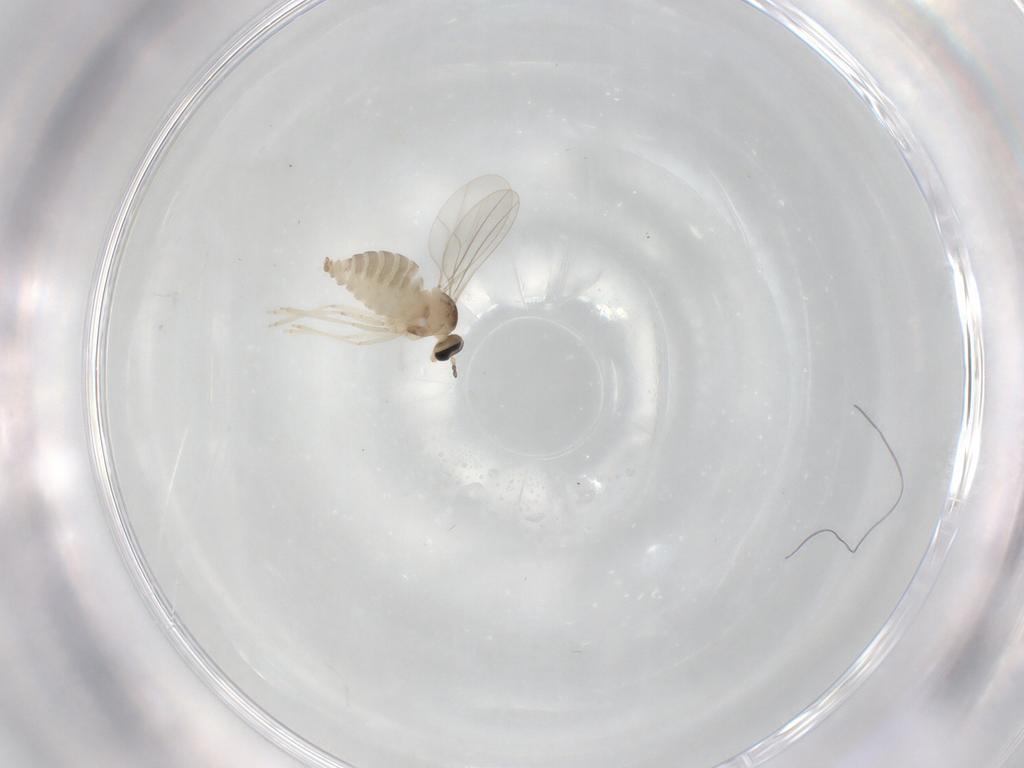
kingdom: Animalia
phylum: Arthropoda
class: Insecta
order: Diptera
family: Cecidomyiidae
